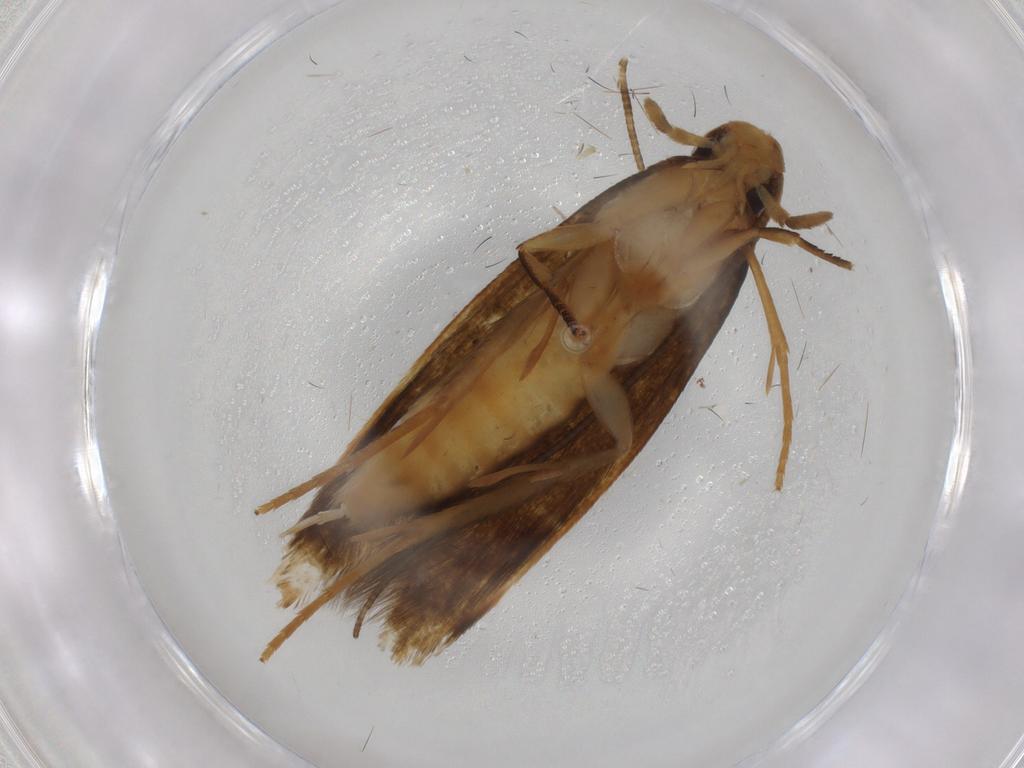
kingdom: Animalia
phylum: Arthropoda
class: Insecta
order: Lepidoptera
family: Tineidae
